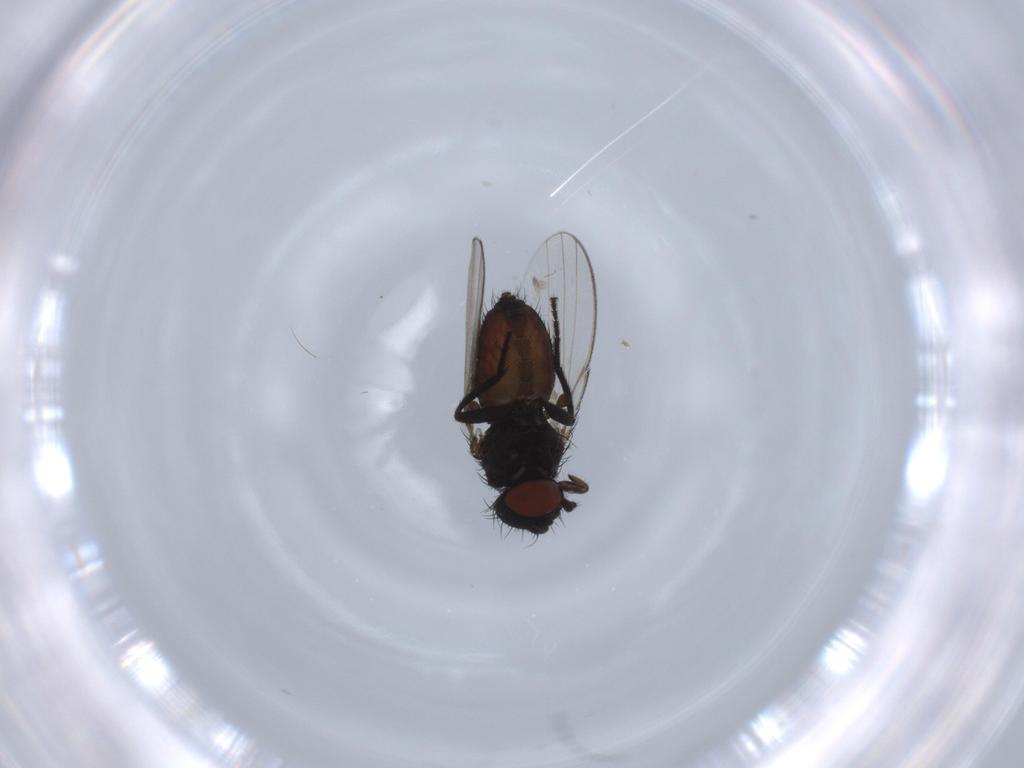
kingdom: Animalia
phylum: Arthropoda
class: Insecta
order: Diptera
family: Milichiidae
